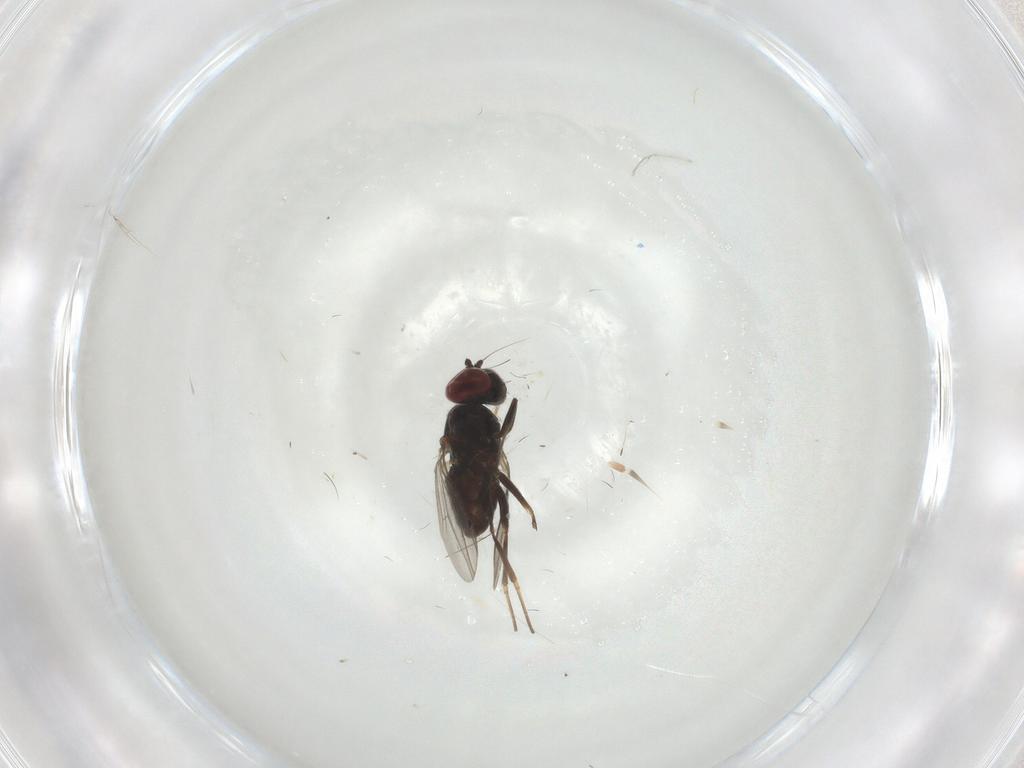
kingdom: Animalia
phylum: Arthropoda
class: Insecta
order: Diptera
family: Dolichopodidae
